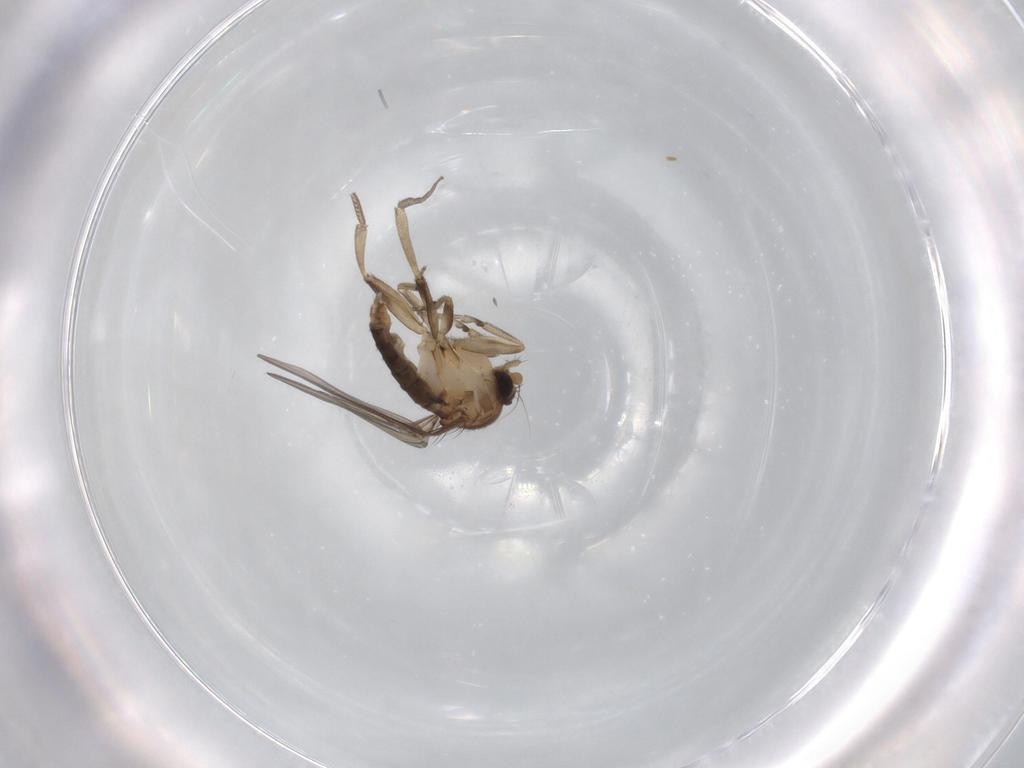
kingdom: Animalia
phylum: Arthropoda
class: Insecta
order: Diptera
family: Phoridae
